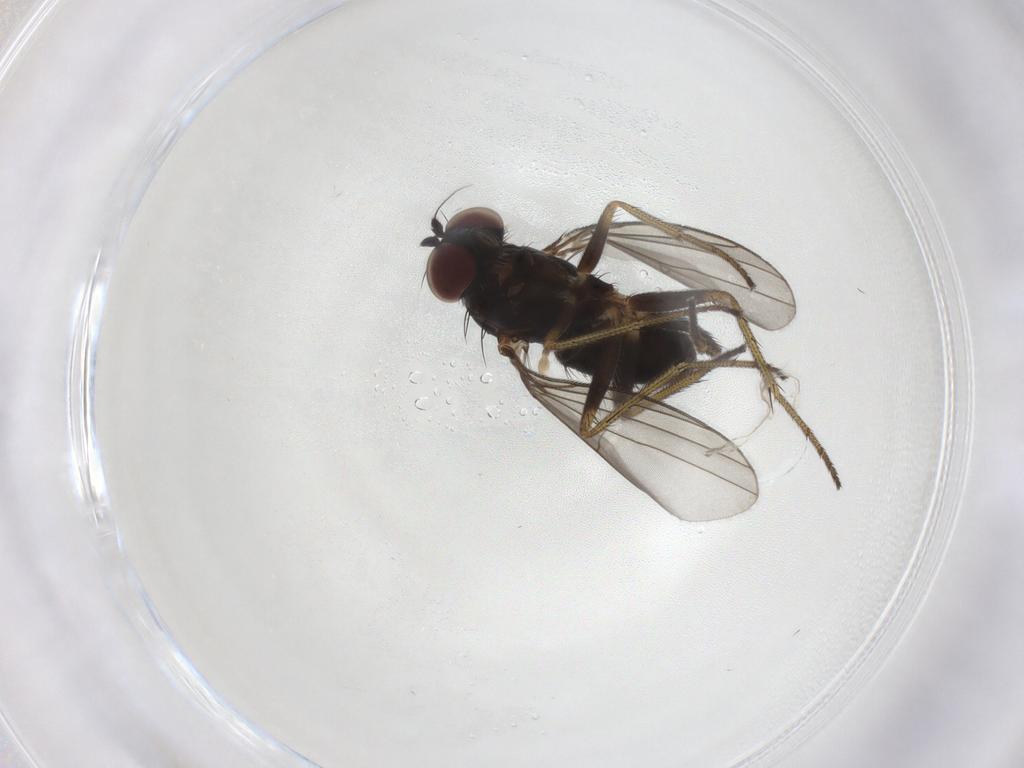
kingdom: Animalia
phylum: Arthropoda
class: Insecta
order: Diptera
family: Dolichopodidae
